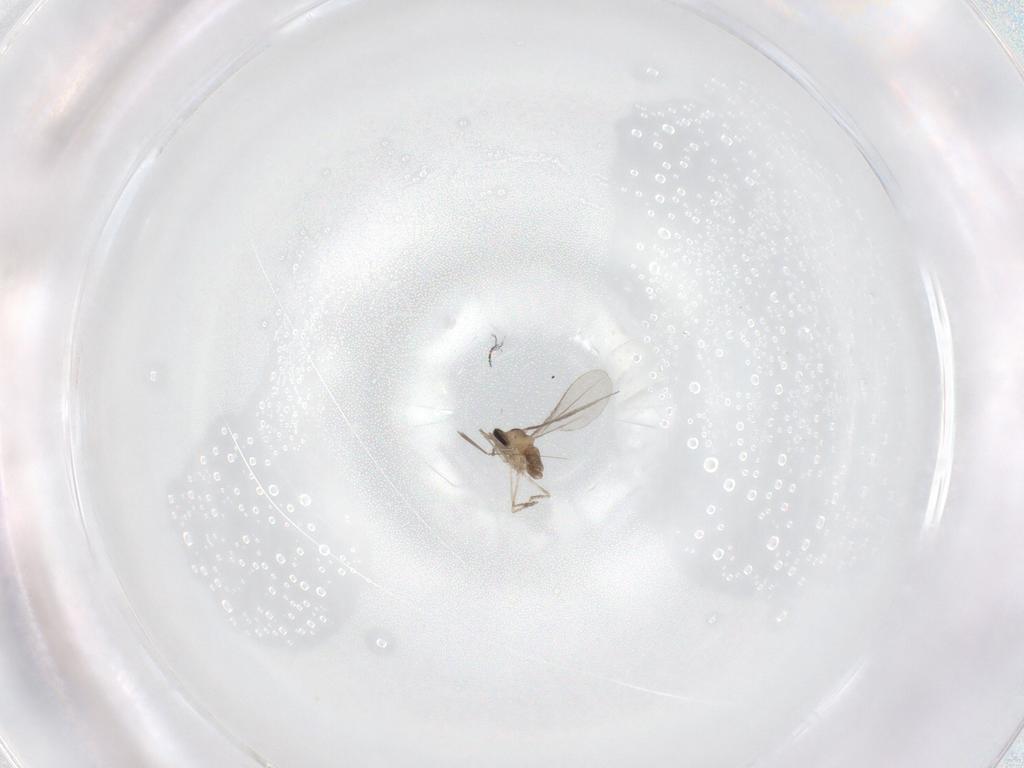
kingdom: Animalia
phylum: Arthropoda
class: Insecta
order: Diptera
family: Cecidomyiidae
